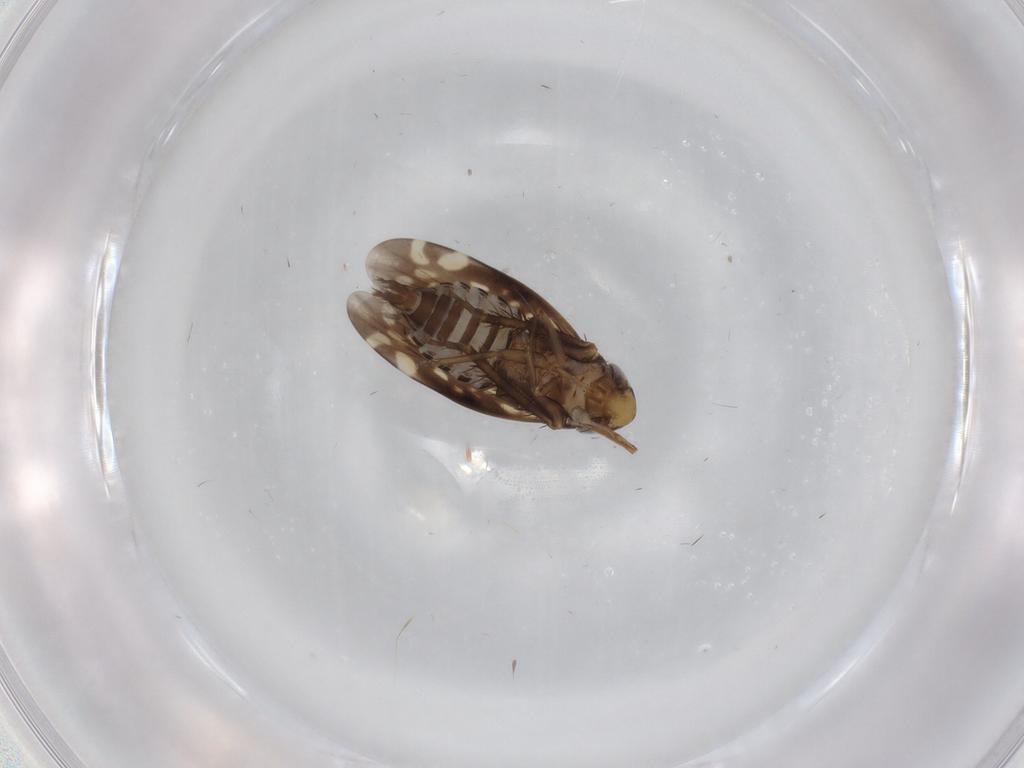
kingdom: Animalia
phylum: Arthropoda
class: Insecta
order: Hemiptera
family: Cicadellidae
